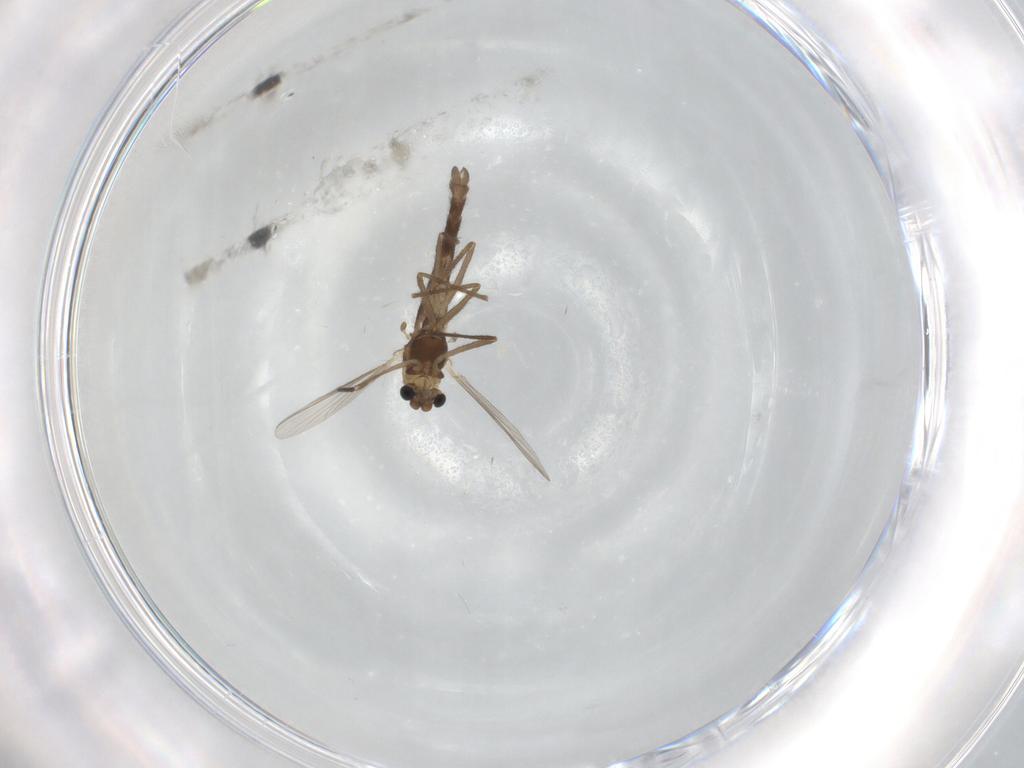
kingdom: Animalia
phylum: Arthropoda
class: Insecta
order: Diptera
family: Chironomidae
